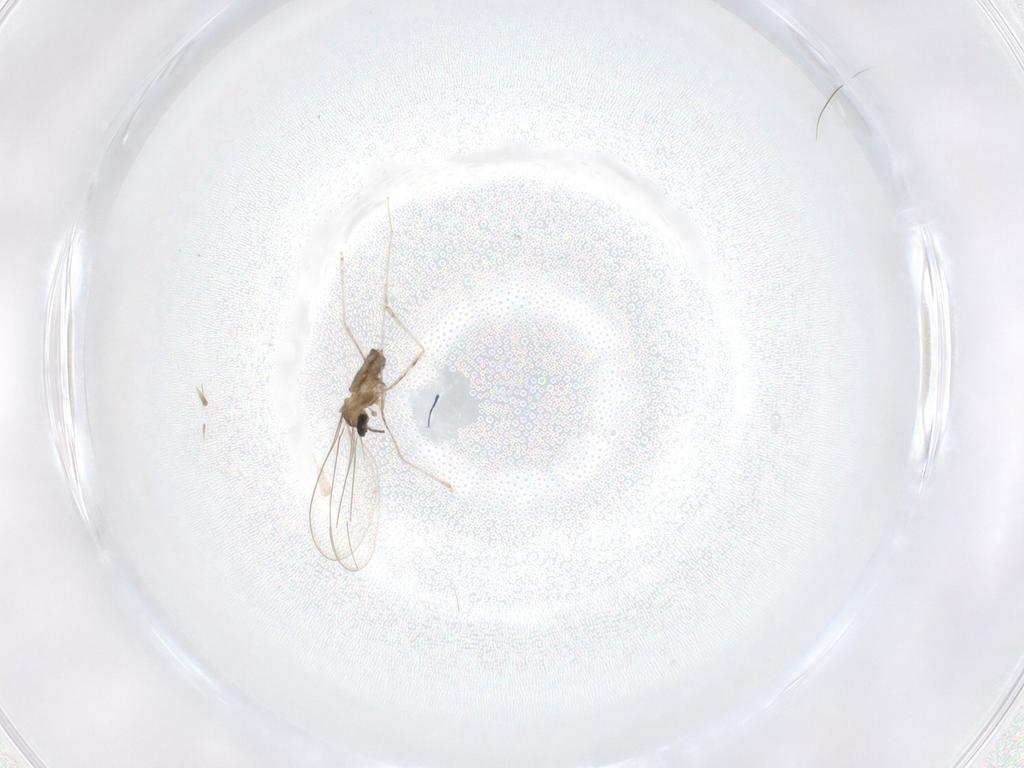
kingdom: Animalia
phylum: Arthropoda
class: Insecta
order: Diptera
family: Cecidomyiidae
